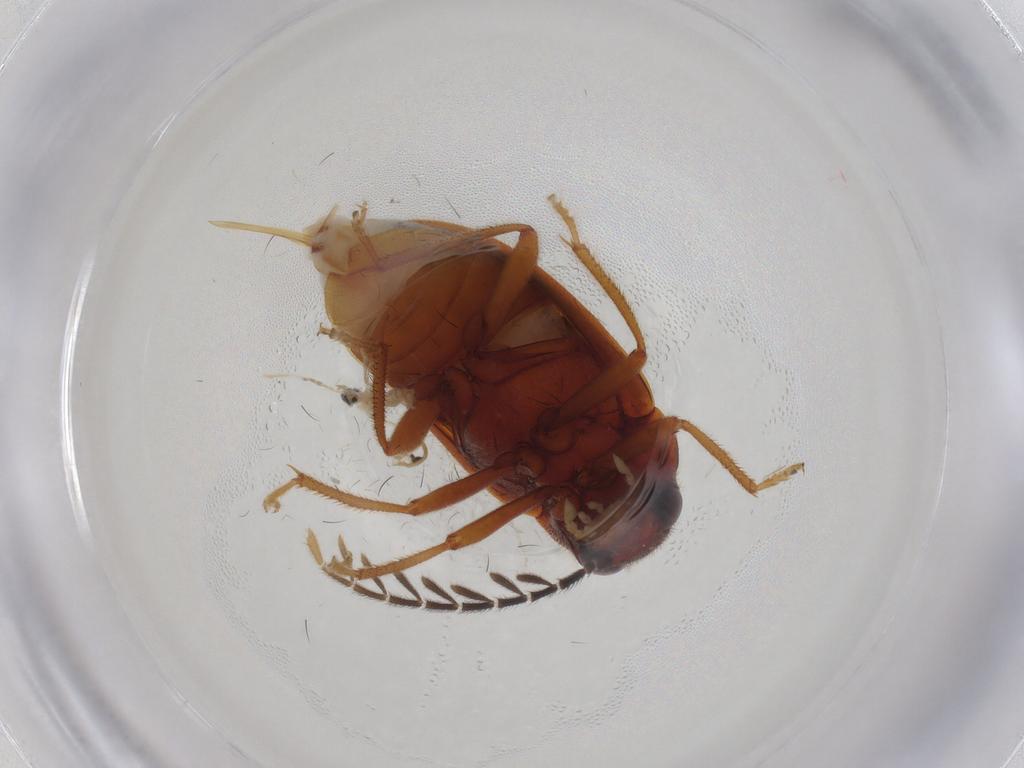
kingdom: Animalia
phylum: Arthropoda
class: Insecta
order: Coleoptera
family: Ptilodactylidae
